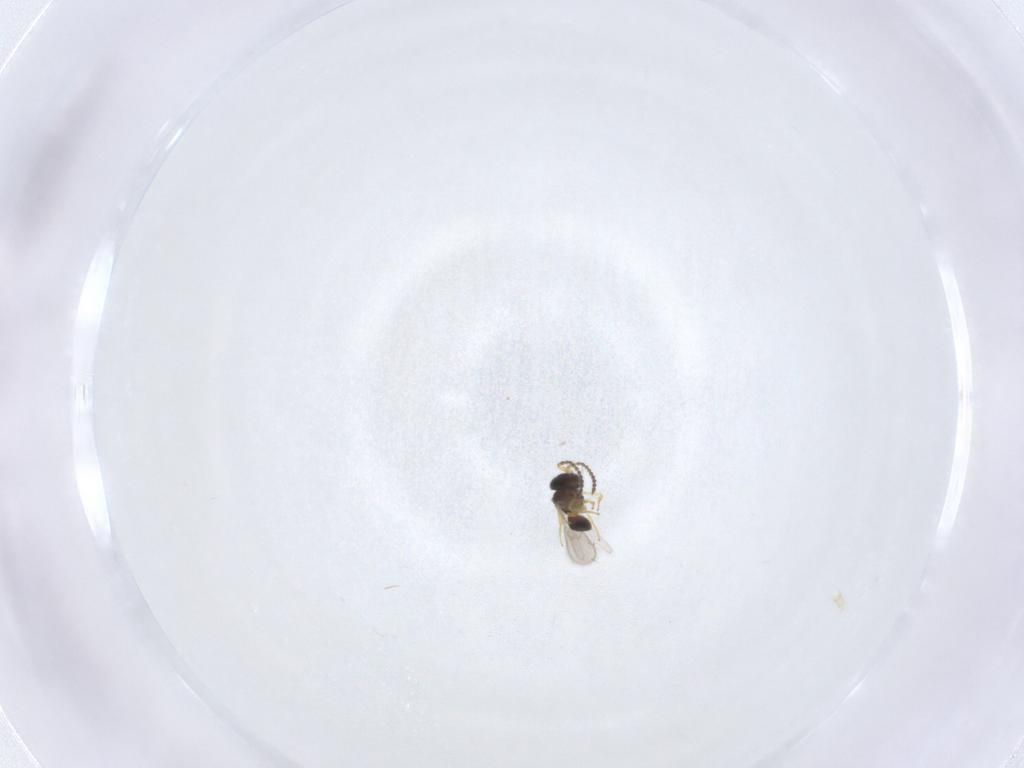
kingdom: Animalia
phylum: Arthropoda
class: Insecta
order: Hymenoptera
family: Scelionidae
